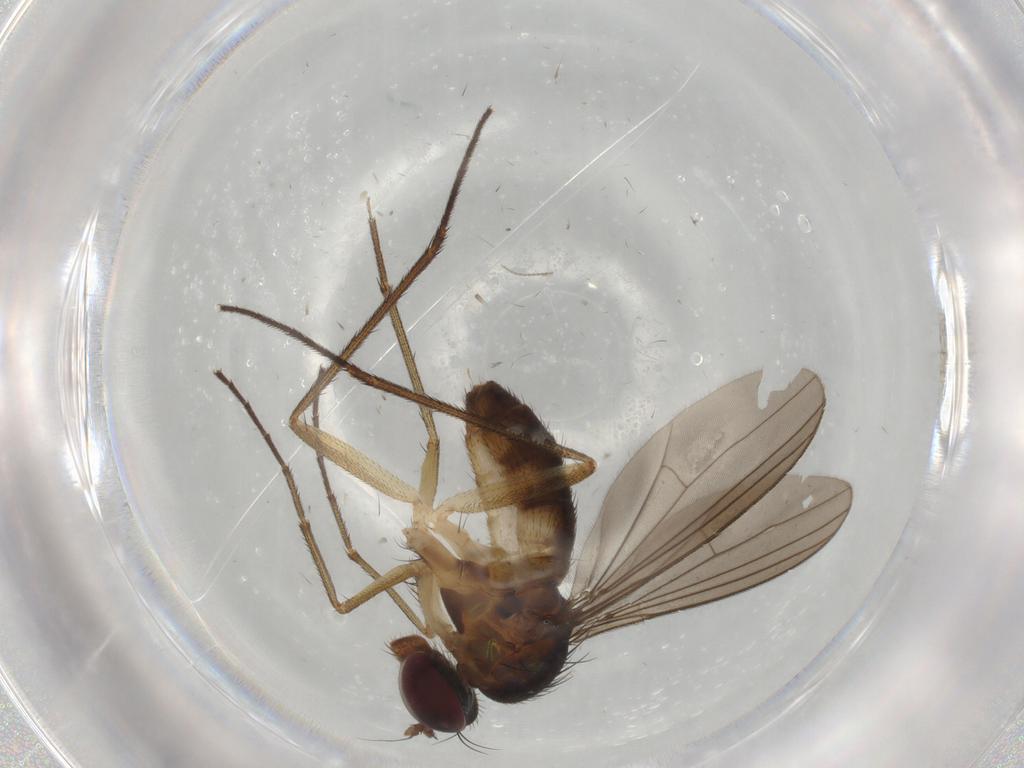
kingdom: Animalia
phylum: Arthropoda
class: Insecta
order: Diptera
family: Dolichopodidae
